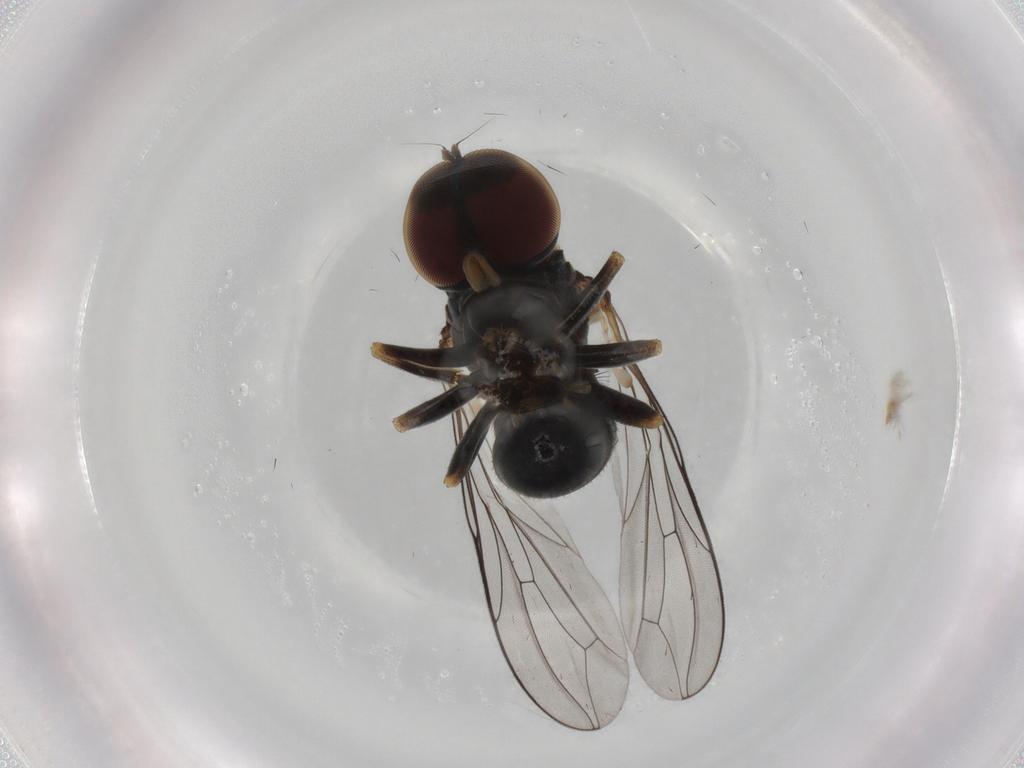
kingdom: Animalia
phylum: Arthropoda
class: Insecta
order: Diptera
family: Pipunculidae
